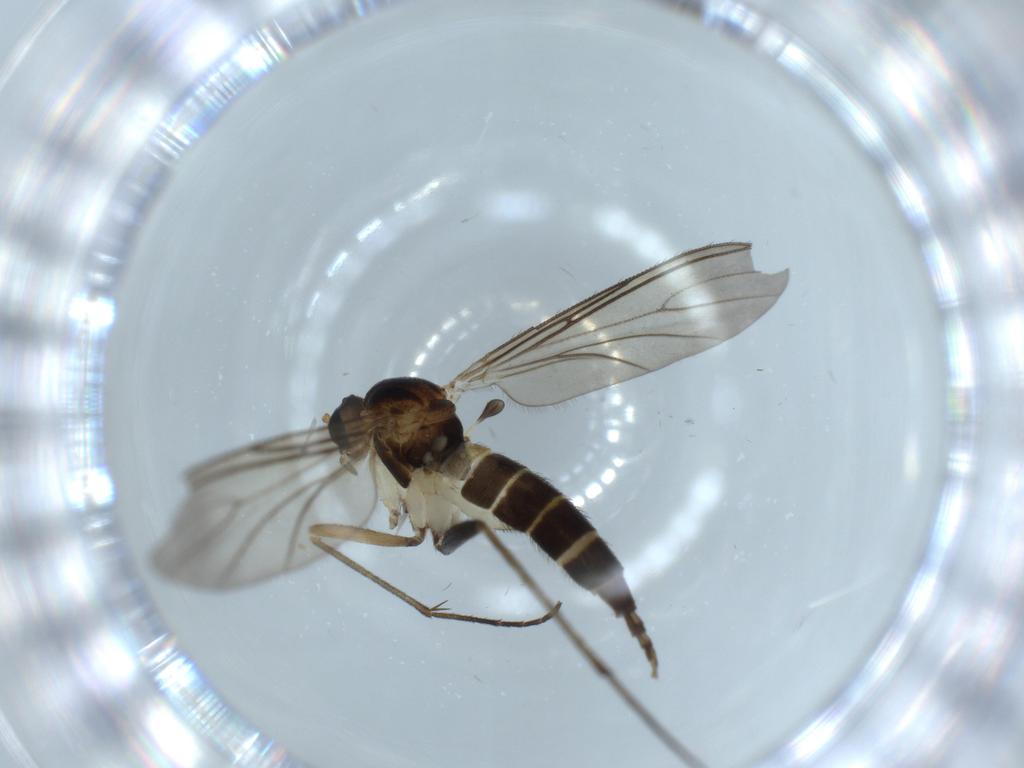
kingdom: Animalia
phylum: Arthropoda
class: Insecta
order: Diptera
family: Sciaridae
